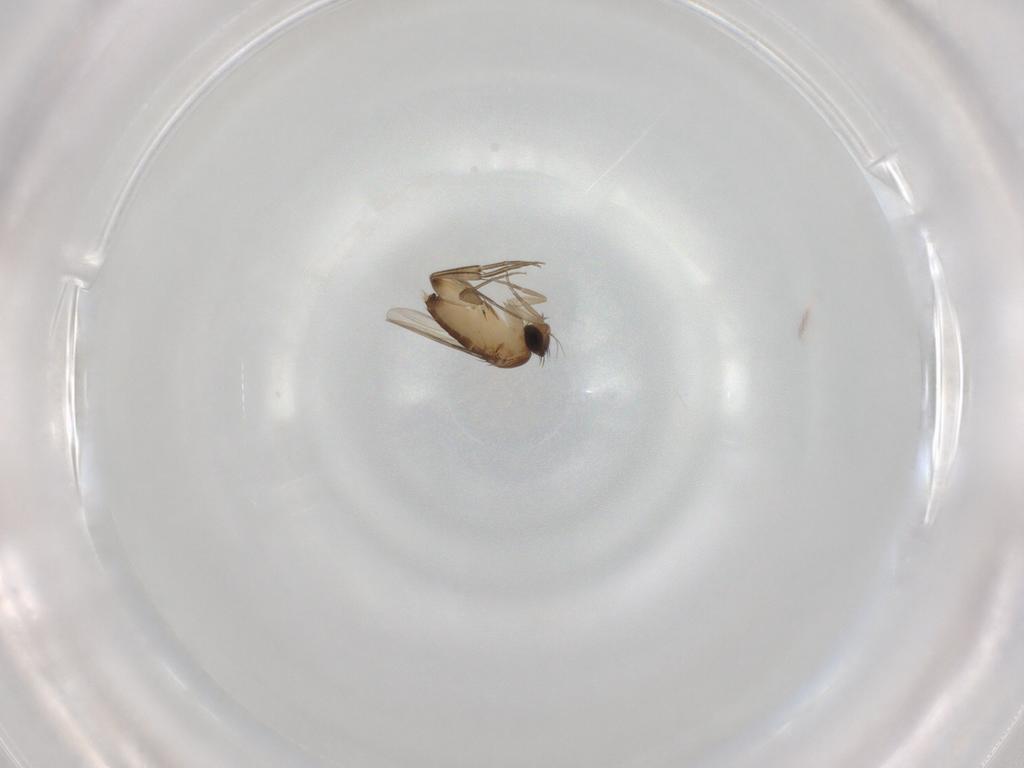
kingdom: Animalia
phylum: Arthropoda
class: Insecta
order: Diptera
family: Phoridae
